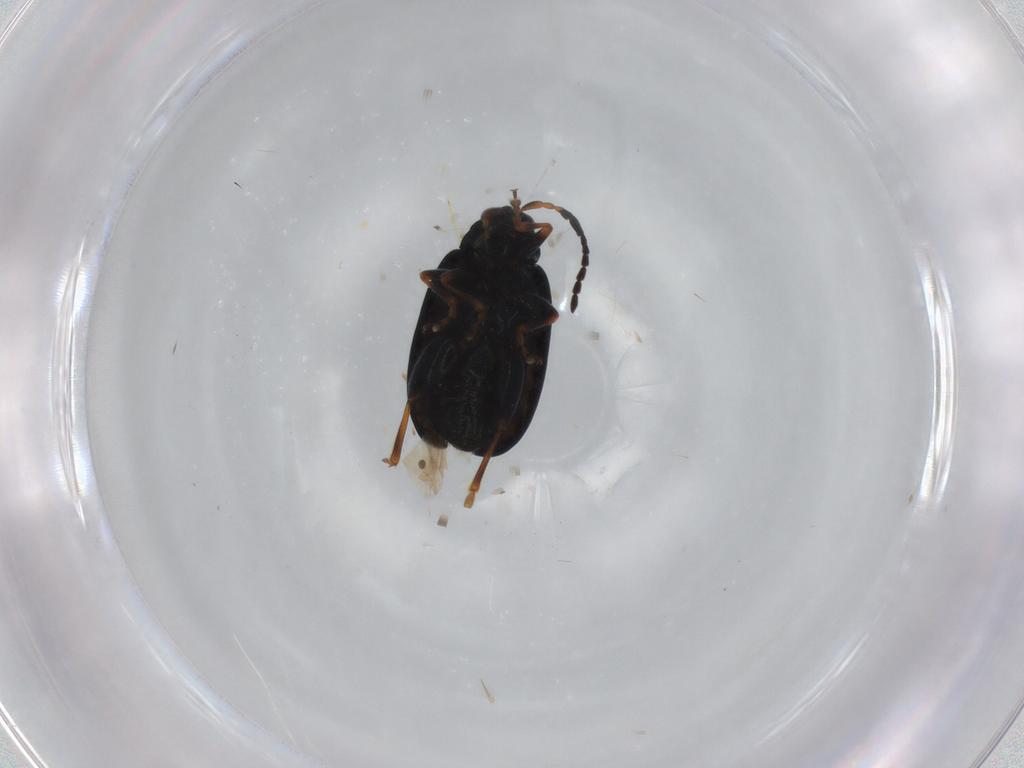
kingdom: Animalia
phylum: Arthropoda
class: Insecta
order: Coleoptera
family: Chrysomelidae
